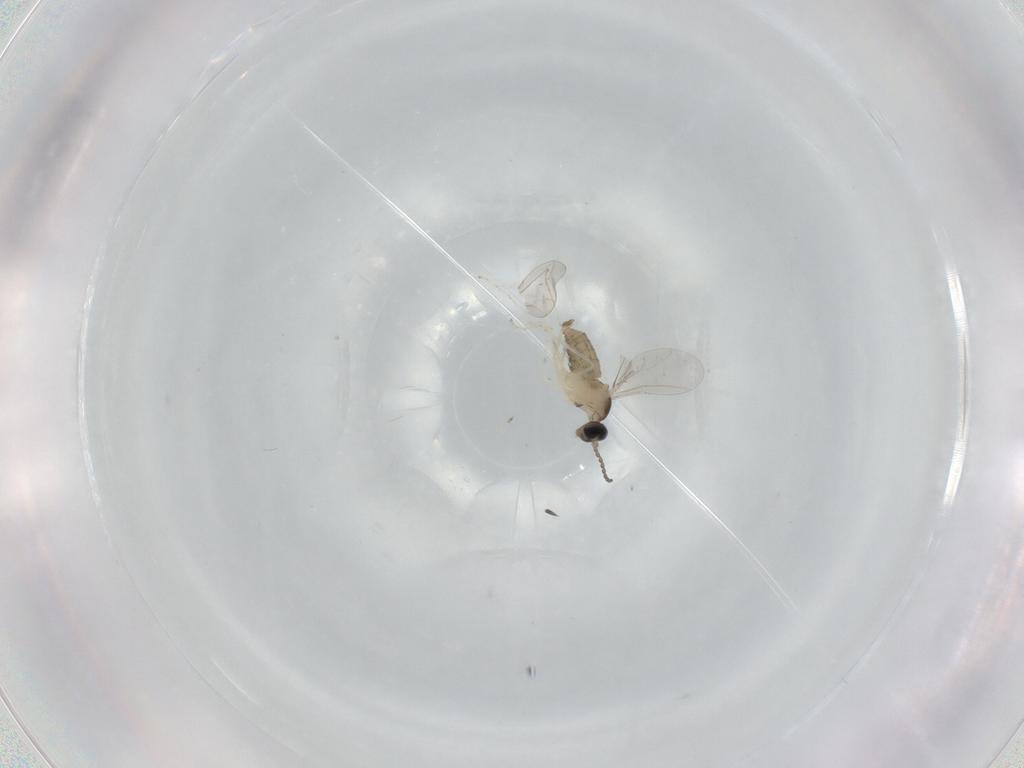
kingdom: Animalia
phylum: Arthropoda
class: Insecta
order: Diptera
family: Cecidomyiidae
